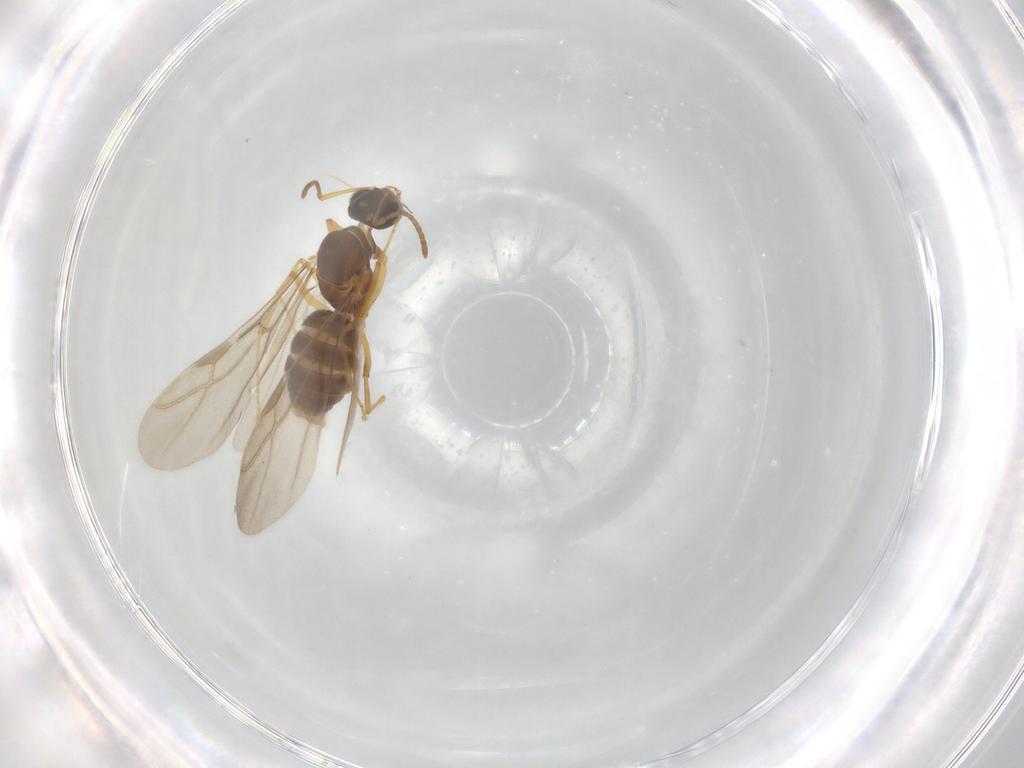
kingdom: Animalia
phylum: Arthropoda
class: Insecta
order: Hymenoptera
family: Formicidae
